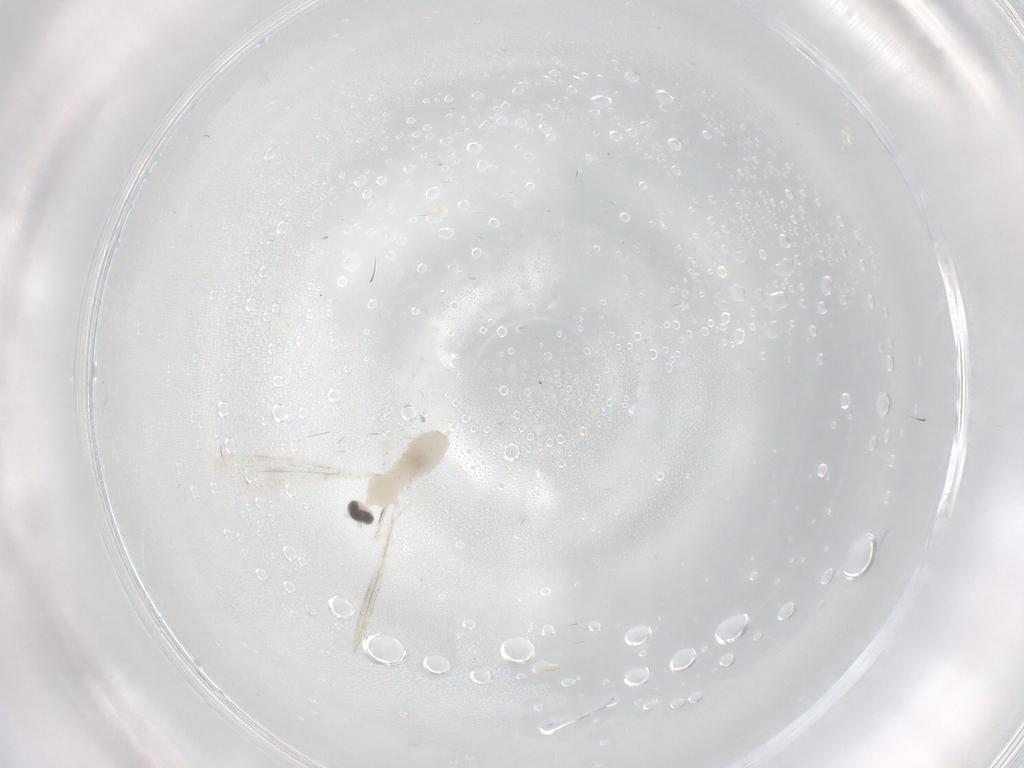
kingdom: Animalia
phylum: Arthropoda
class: Insecta
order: Diptera
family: Cecidomyiidae
